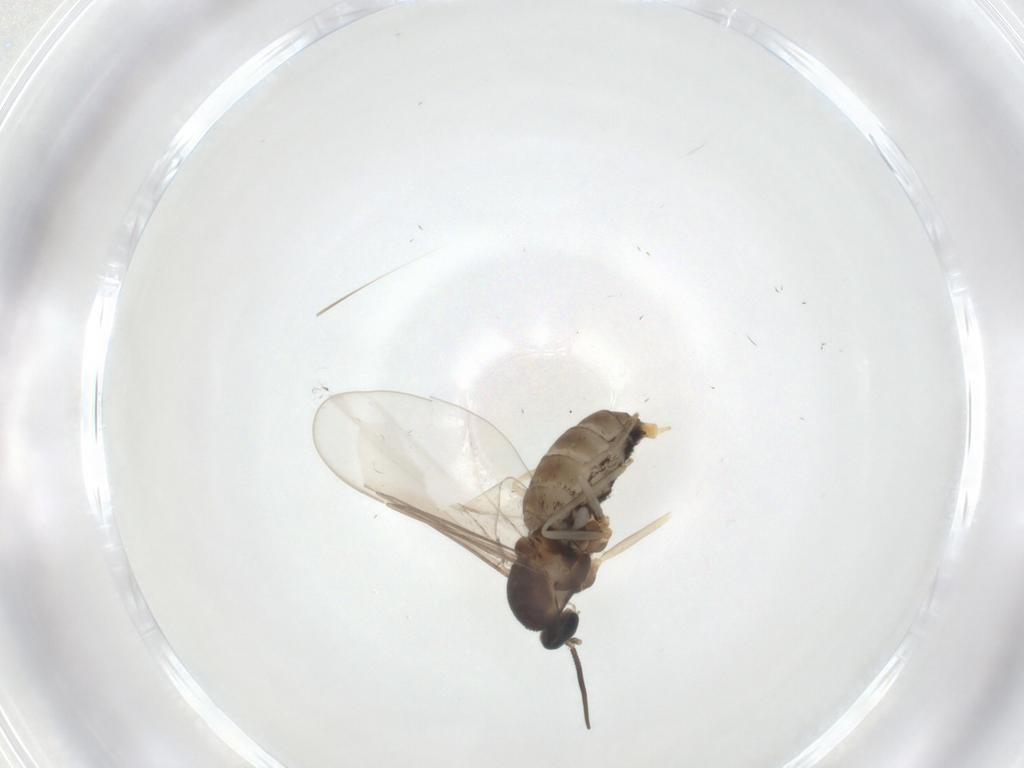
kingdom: Animalia
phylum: Arthropoda
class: Insecta
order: Diptera
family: Cecidomyiidae
